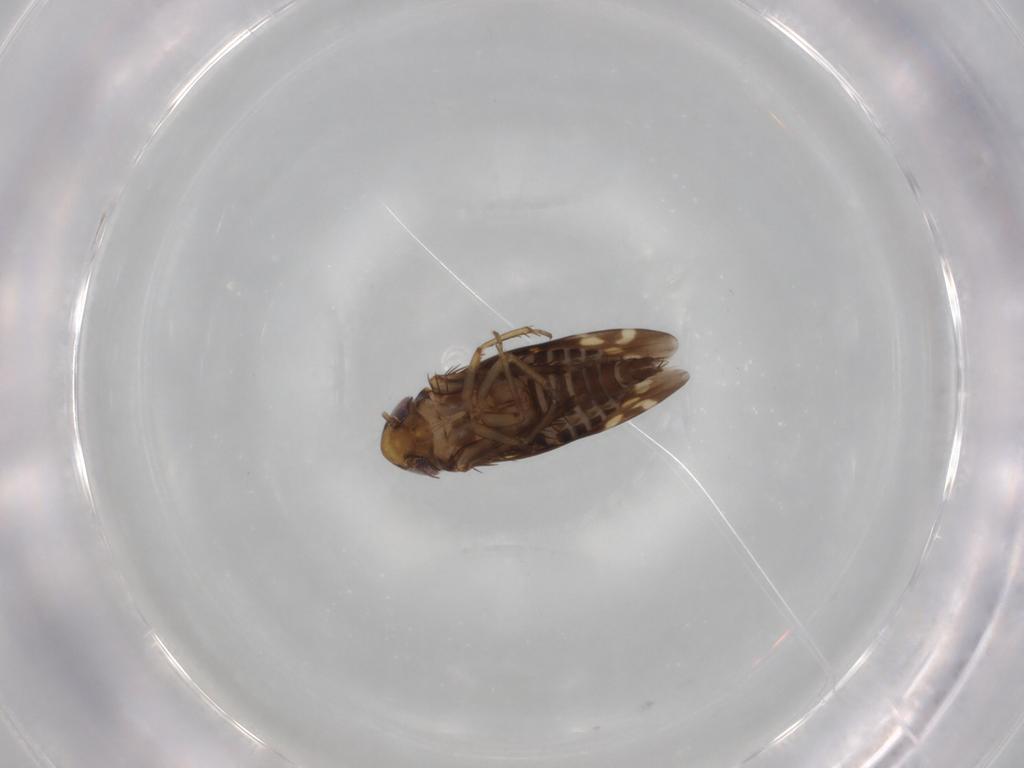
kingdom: Animalia
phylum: Arthropoda
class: Insecta
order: Hemiptera
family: Cicadellidae
